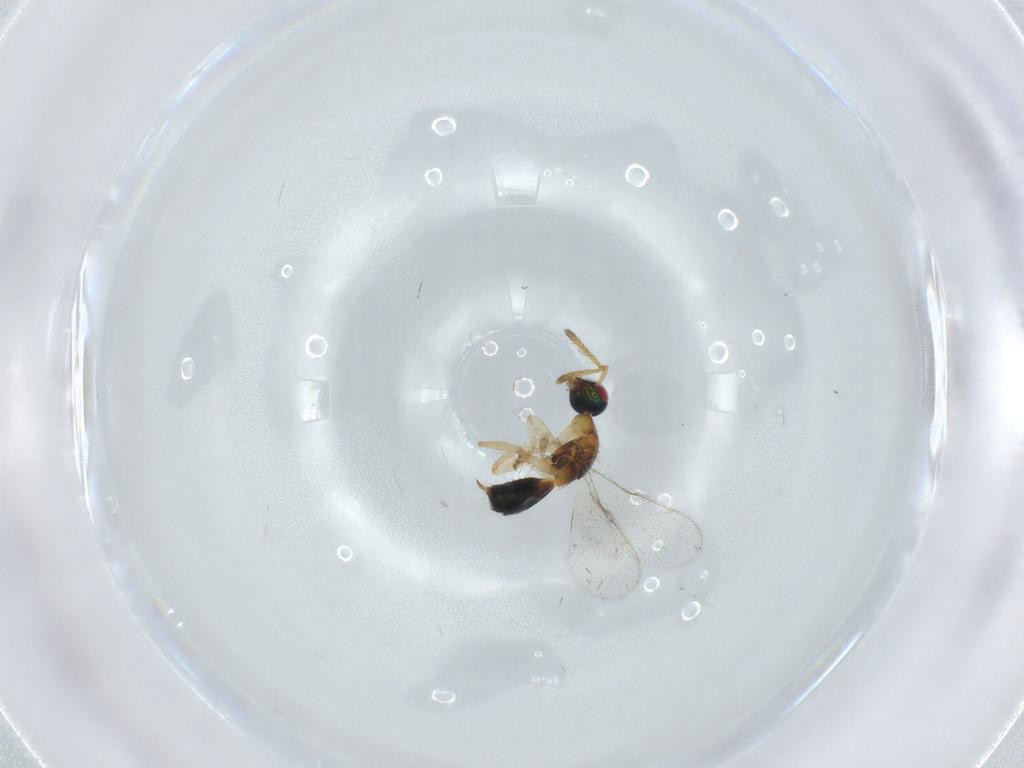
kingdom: Animalia
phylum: Arthropoda
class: Insecta
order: Hymenoptera
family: Torymidae
